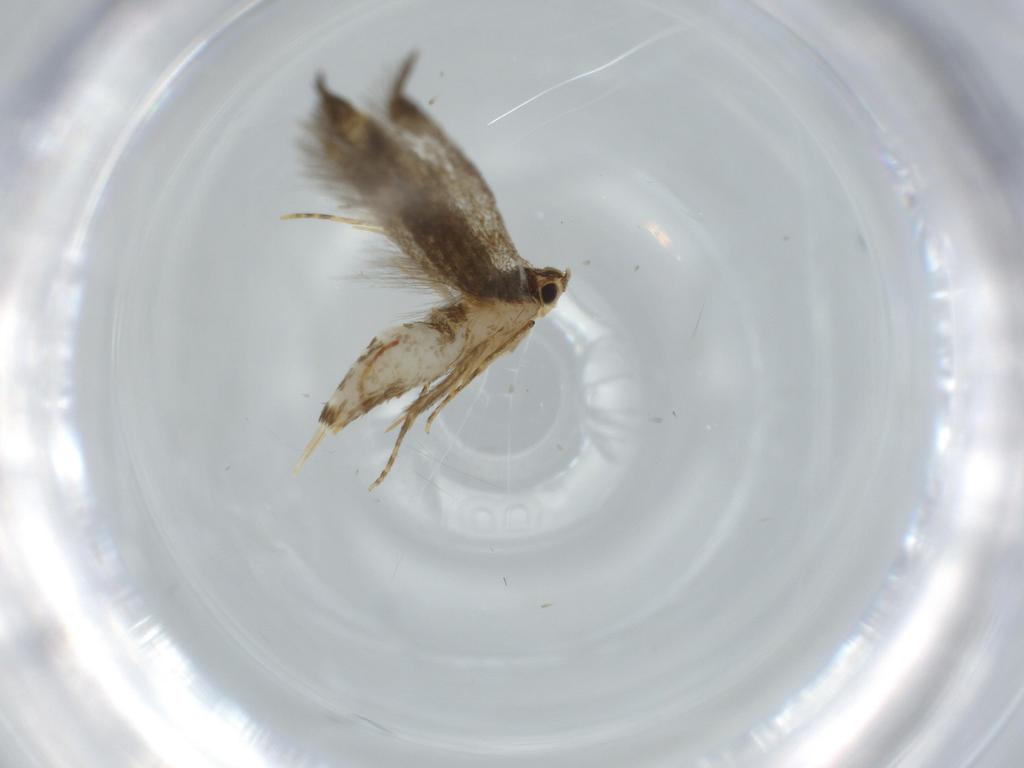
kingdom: Animalia
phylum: Arthropoda
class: Insecta
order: Lepidoptera
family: Tineidae
